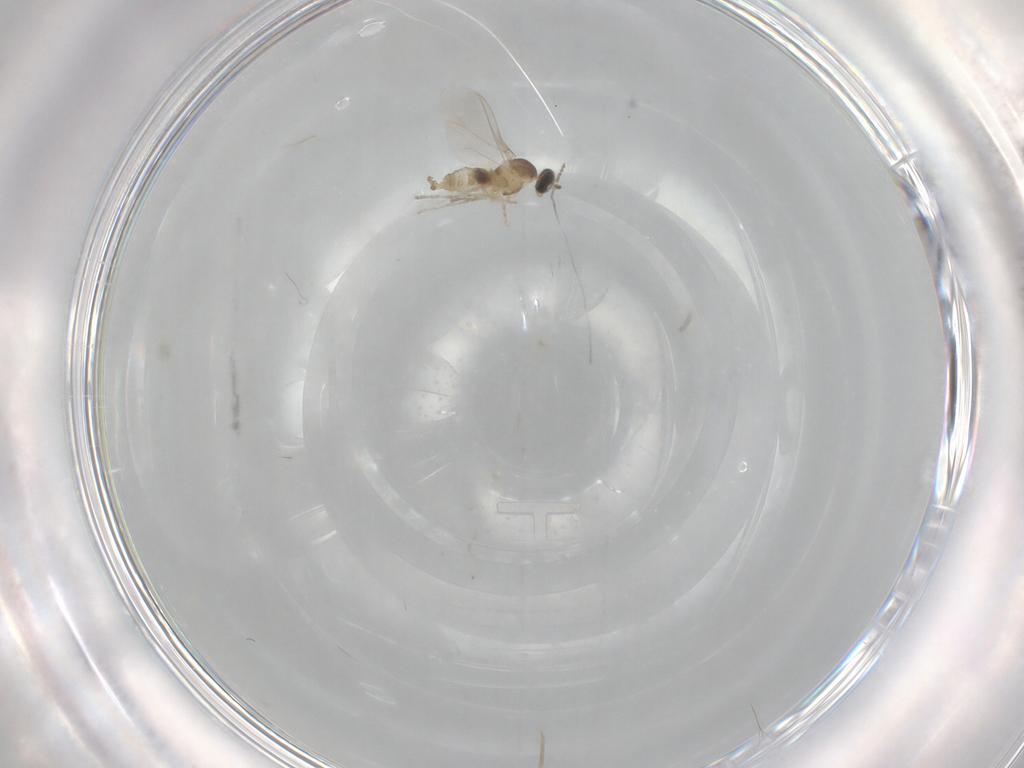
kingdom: Animalia
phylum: Arthropoda
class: Insecta
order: Diptera
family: Cecidomyiidae
